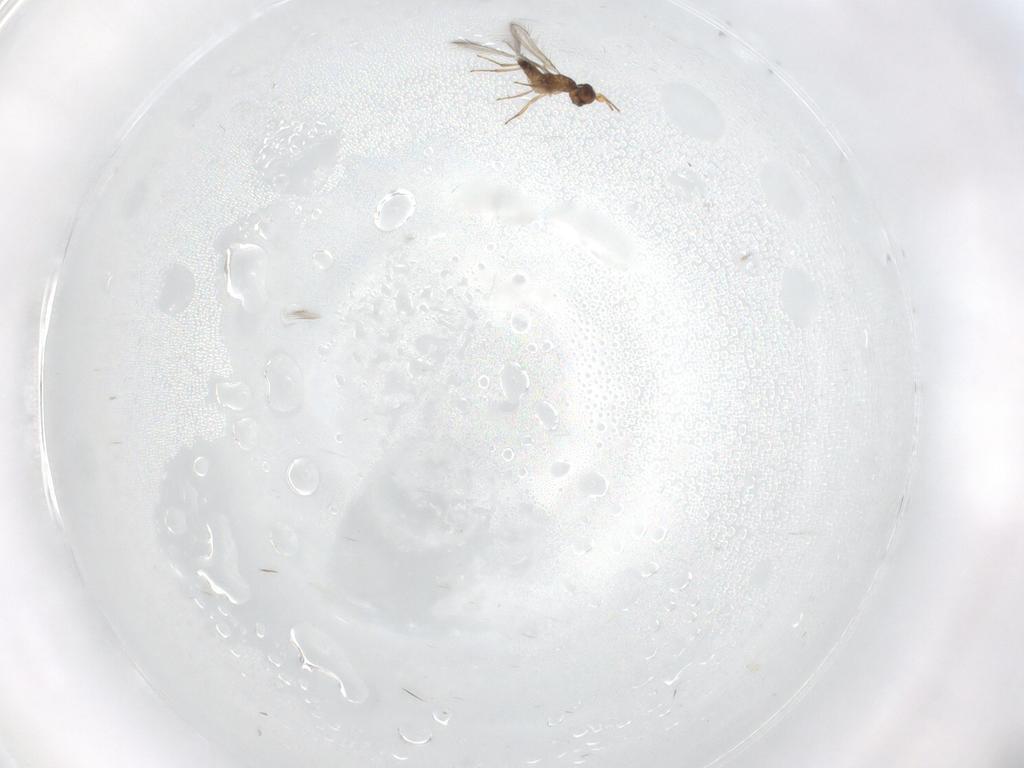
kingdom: Animalia
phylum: Arthropoda
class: Insecta
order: Hymenoptera
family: Mymaridae
